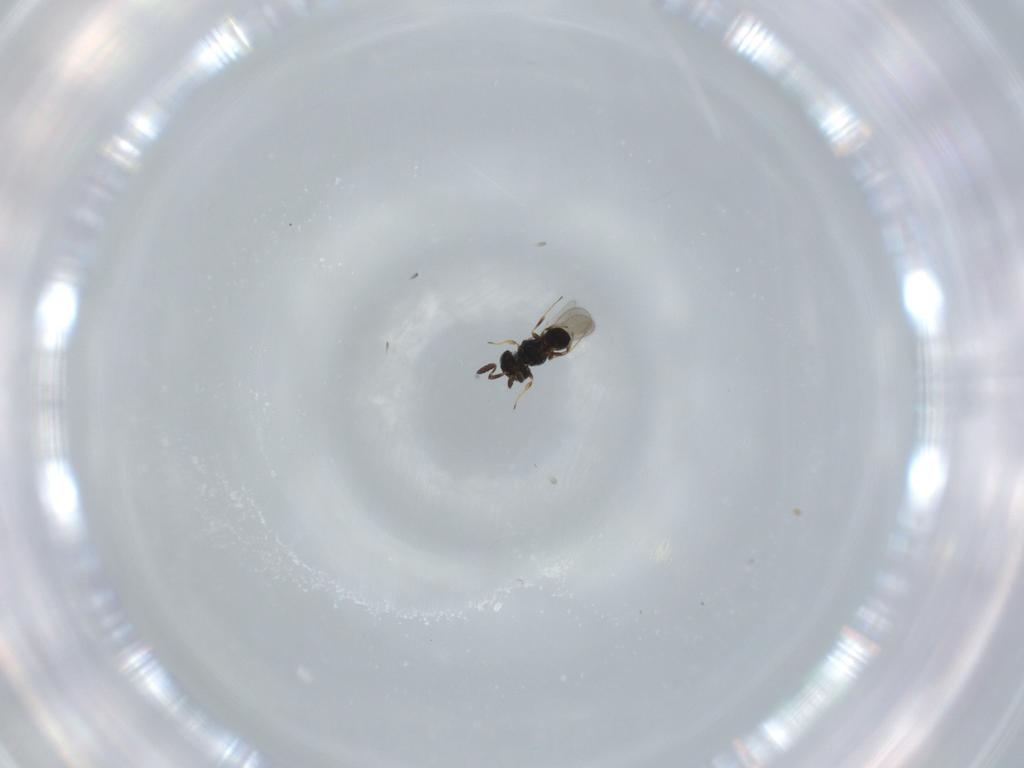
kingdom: Animalia
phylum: Arthropoda
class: Insecta
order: Hymenoptera
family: Scelionidae
